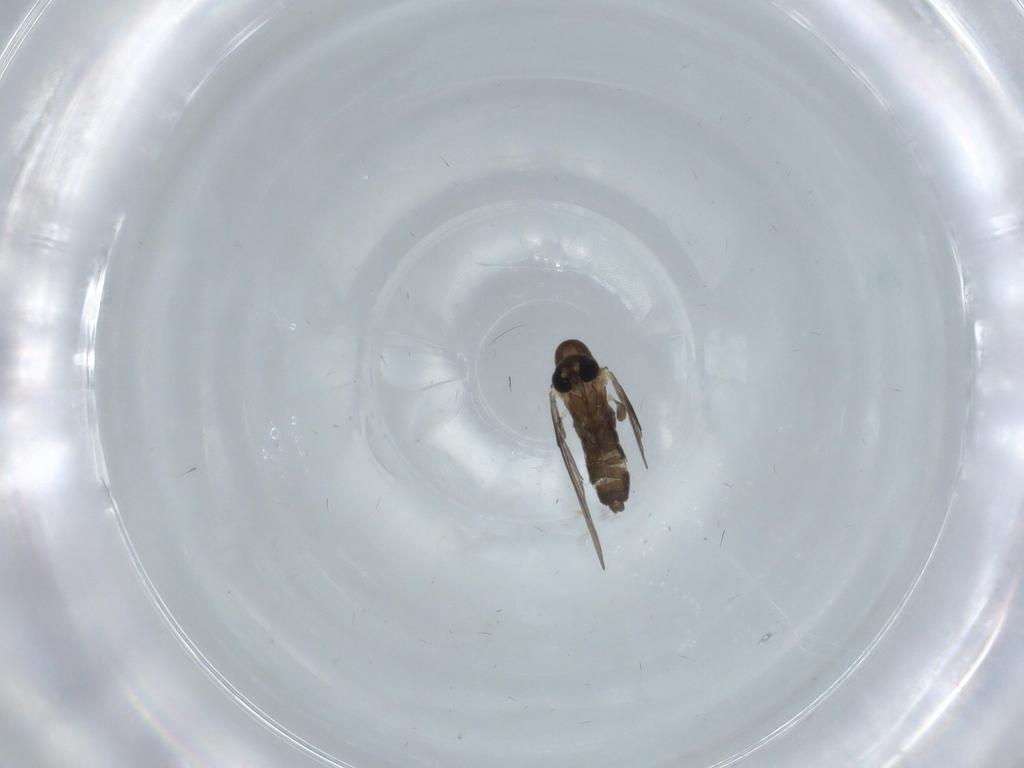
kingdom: Animalia
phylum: Arthropoda
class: Insecta
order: Diptera
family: Psychodidae
